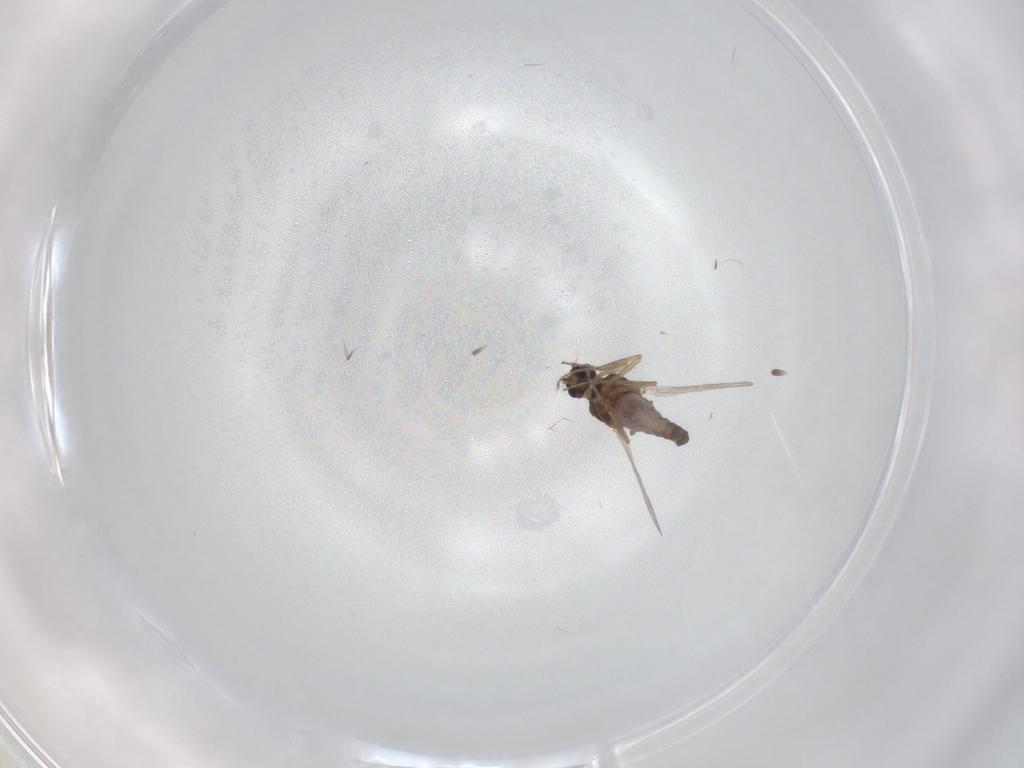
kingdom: Animalia
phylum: Arthropoda
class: Insecta
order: Diptera
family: Ceratopogonidae
